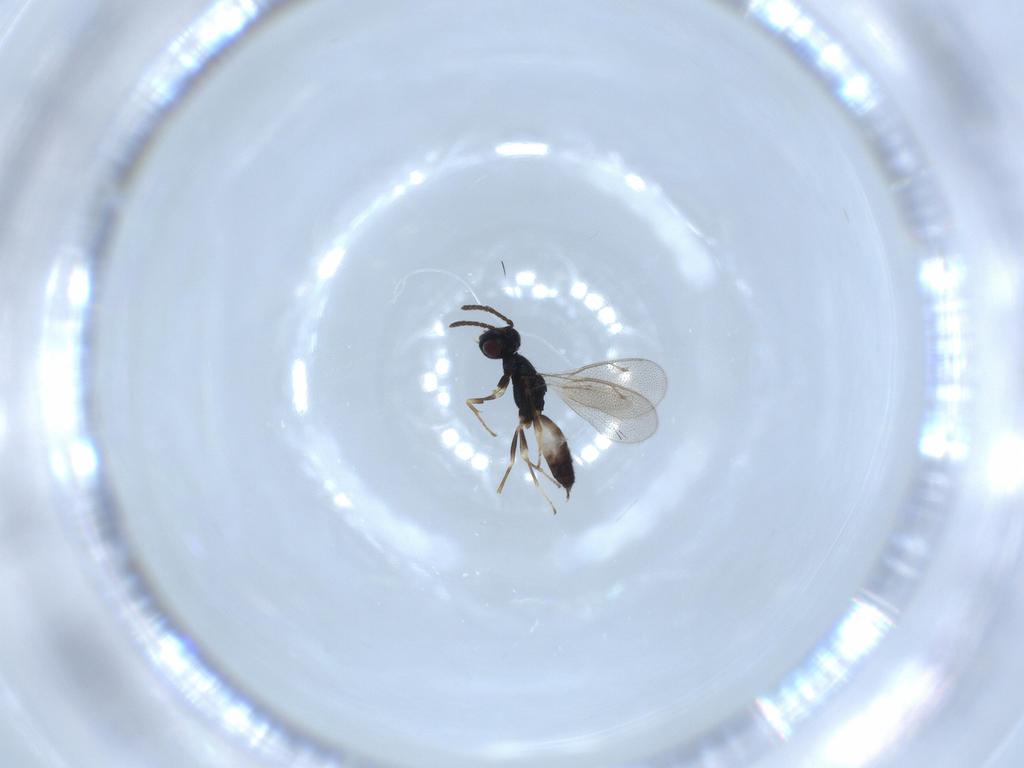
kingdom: Animalia
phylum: Arthropoda
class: Insecta
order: Hymenoptera
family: Pteromalidae
